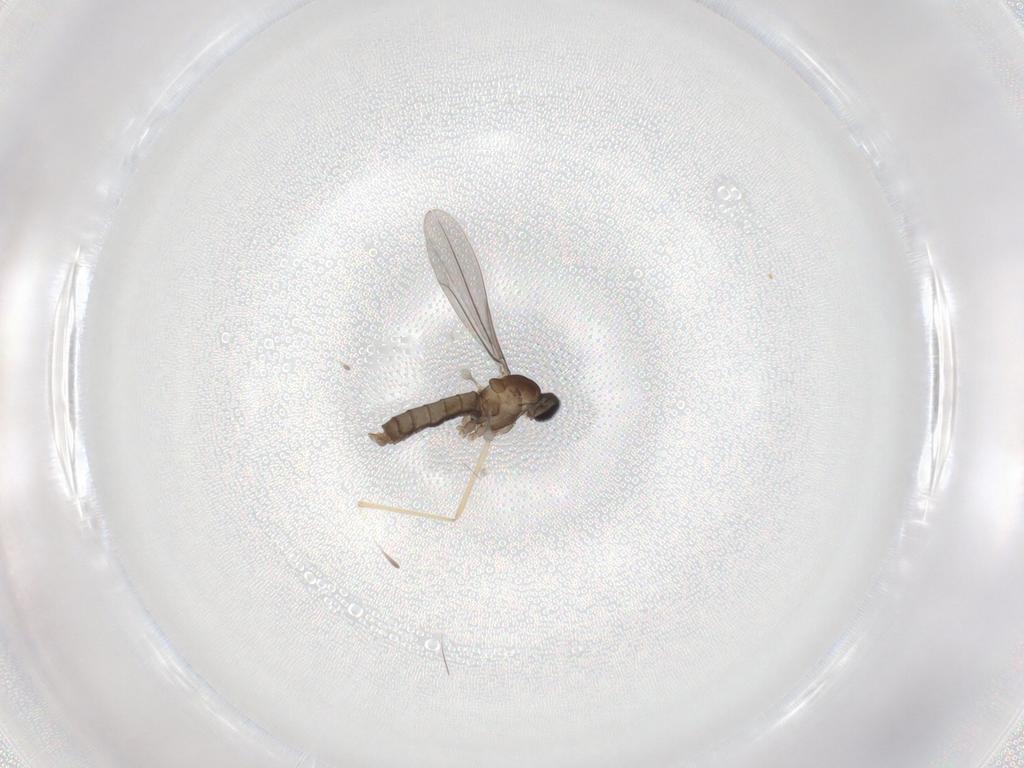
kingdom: Animalia
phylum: Arthropoda
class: Insecta
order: Diptera
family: Cecidomyiidae
